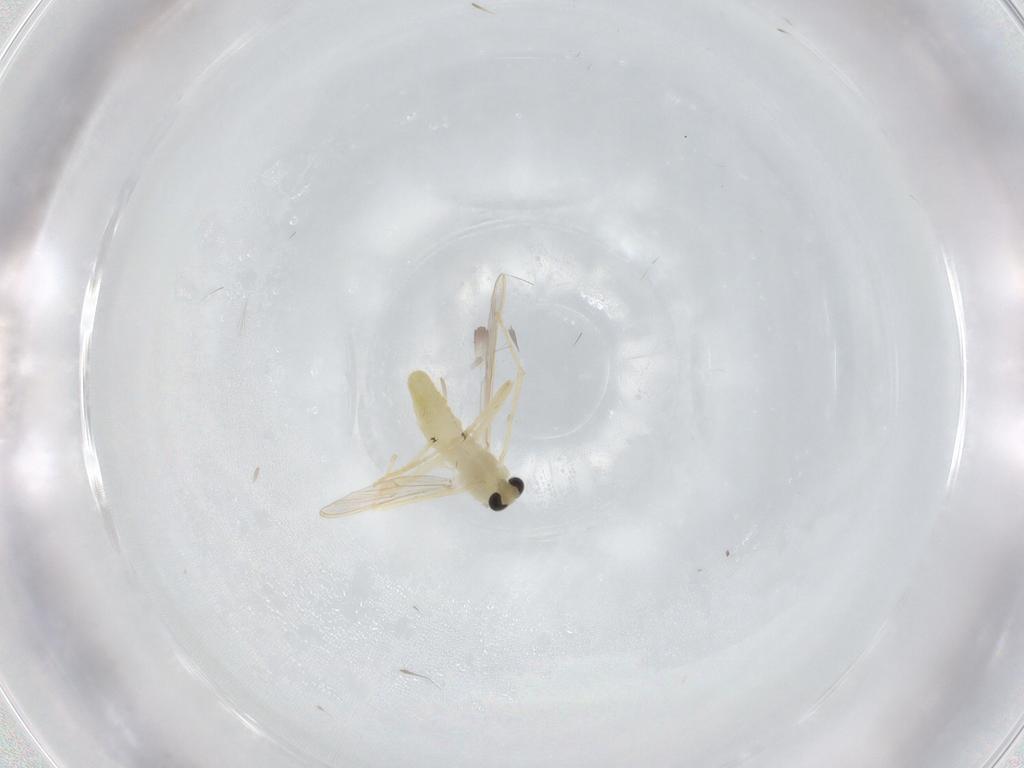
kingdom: Animalia
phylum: Arthropoda
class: Insecta
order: Diptera
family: Chironomidae
